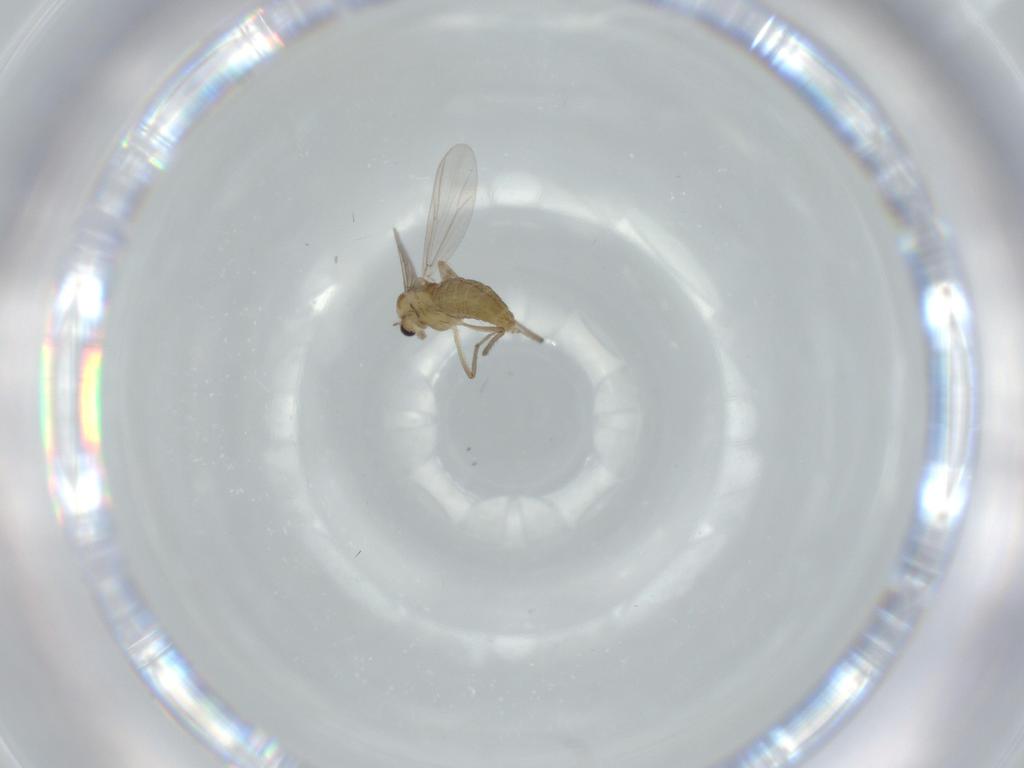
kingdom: Animalia
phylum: Arthropoda
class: Insecta
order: Diptera
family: Chironomidae
